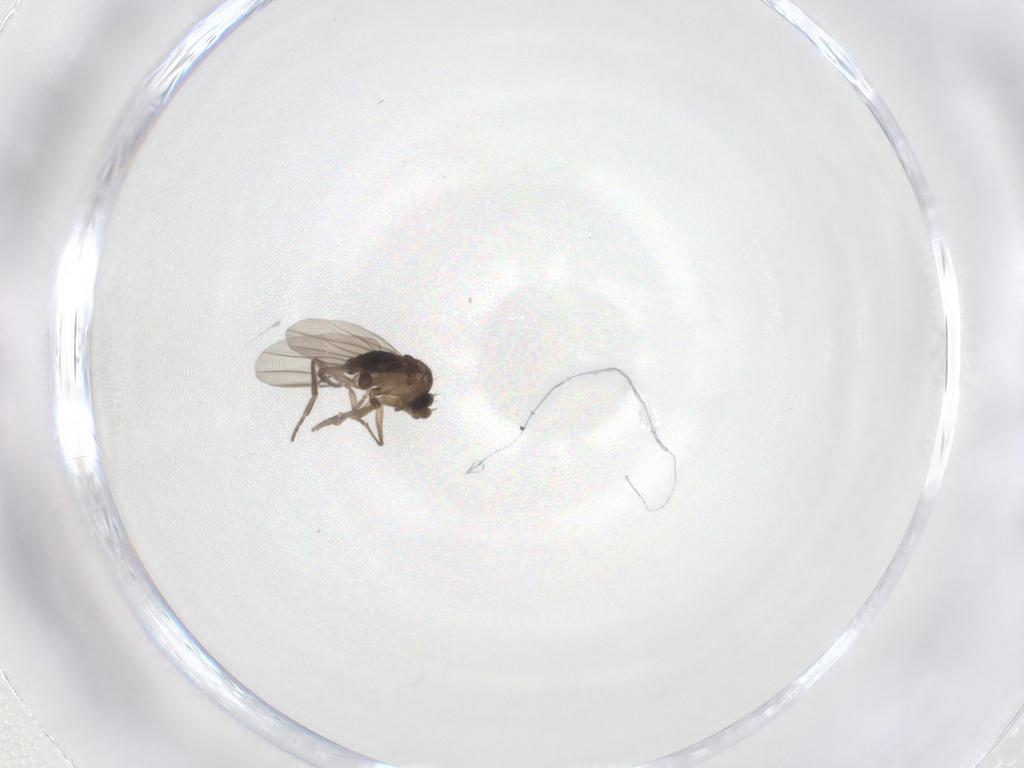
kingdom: Animalia
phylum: Arthropoda
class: Insecta
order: Diptera
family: Phoridae
